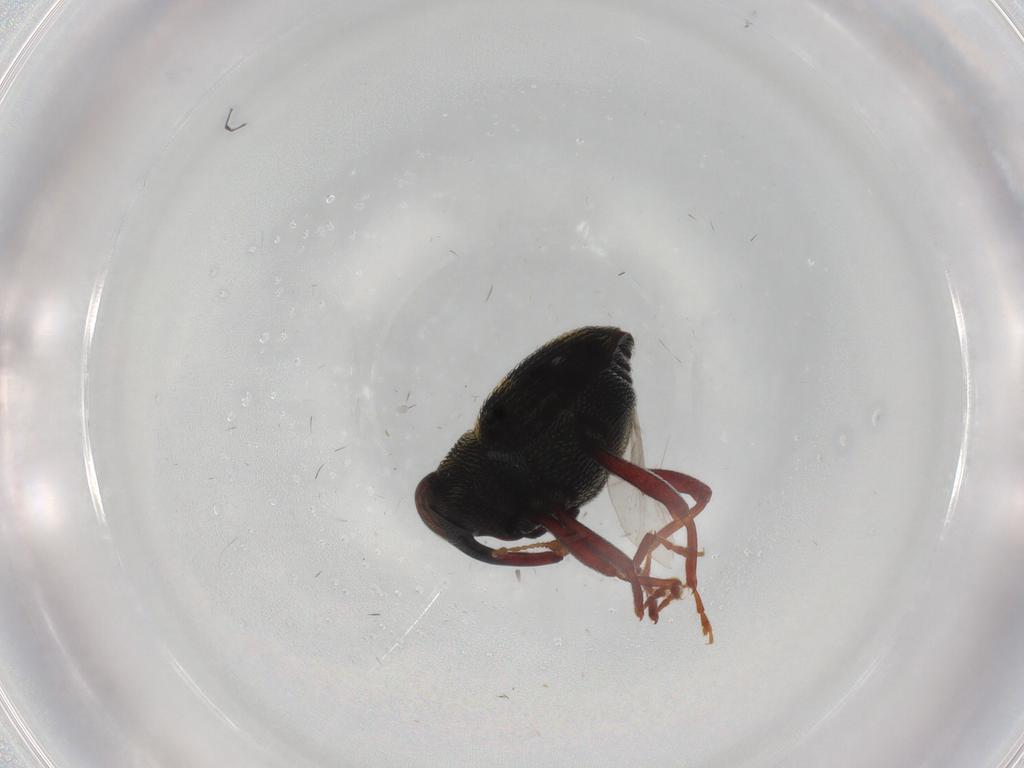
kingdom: Animalia
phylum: Arthropoda
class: Insecta
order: Coleoptera
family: Curculionidae
